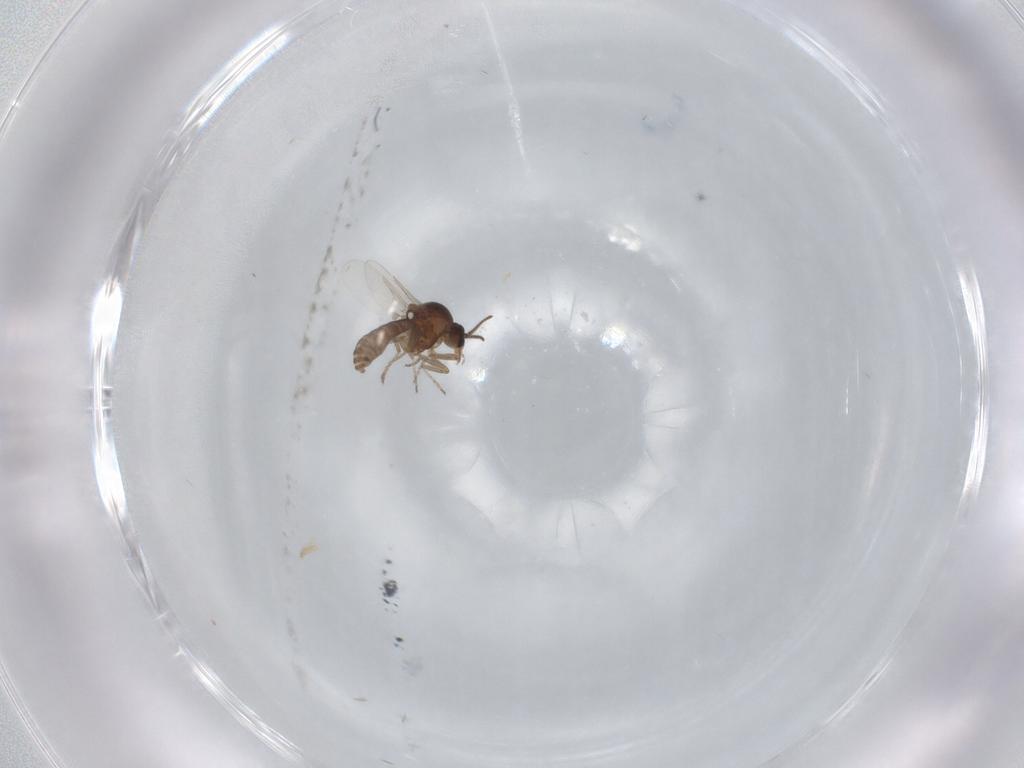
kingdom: Animalia
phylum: Arthropoda
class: Insecta
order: Diptera
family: Ceratopogonidae
